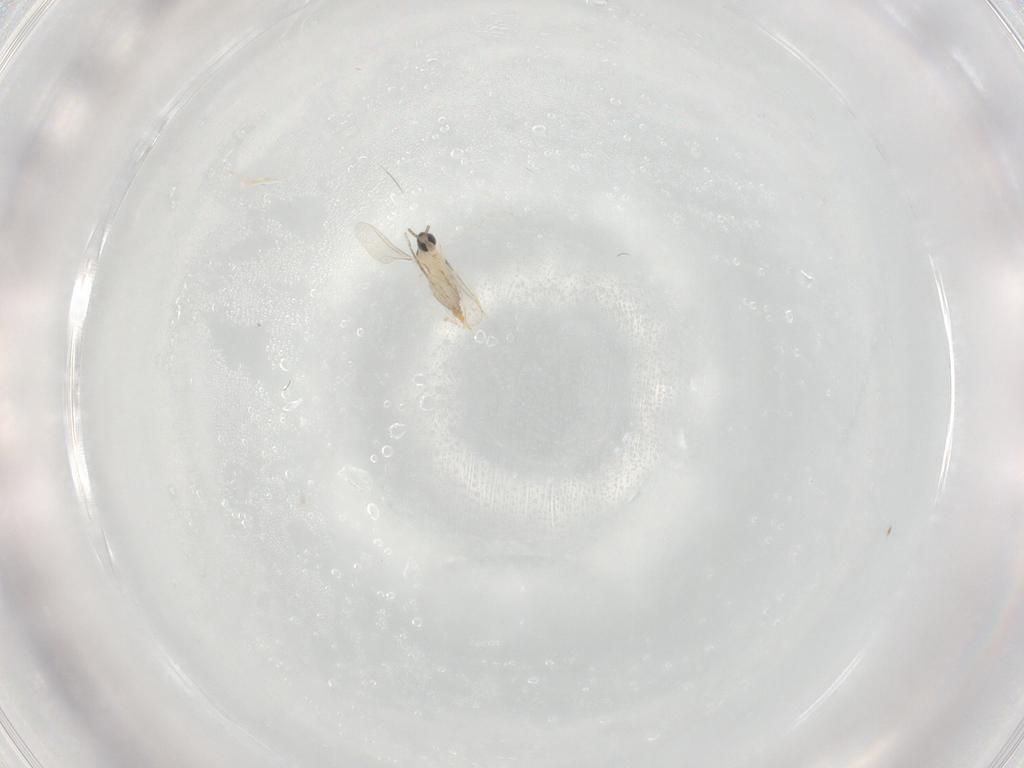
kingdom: Animalia
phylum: Arthropoda
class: Insecta
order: Diptera
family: Cecidomyiidae
